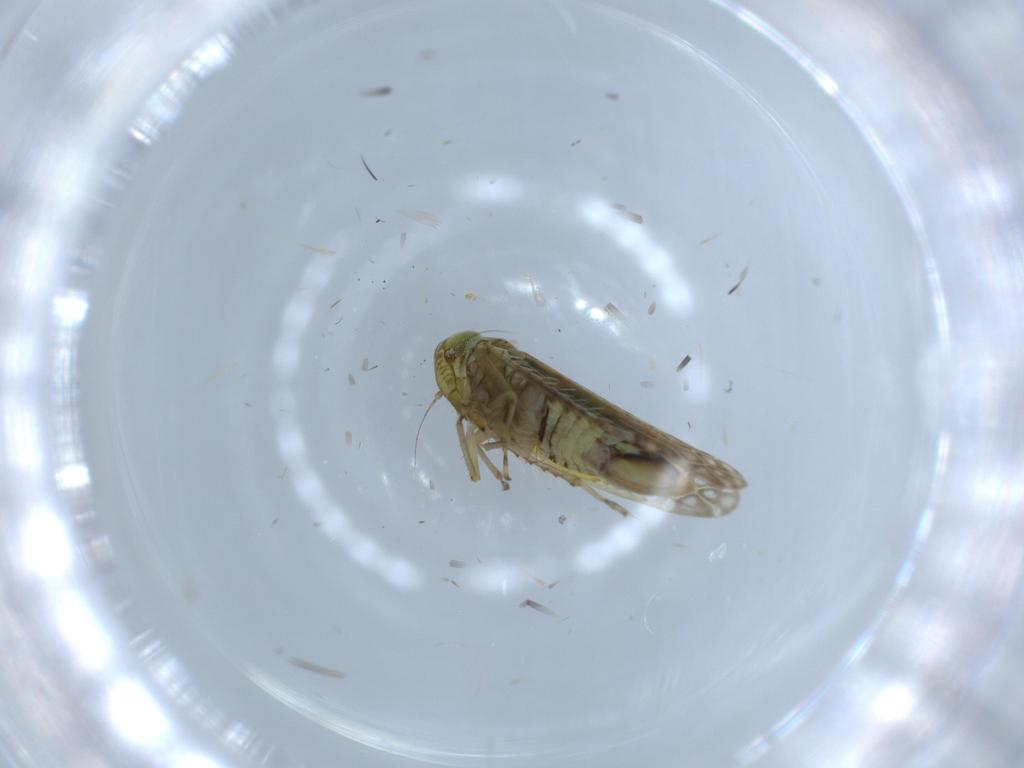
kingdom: Animalia
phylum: Arthropoda
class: Insecta
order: Hemiptera
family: Cicadellidae
